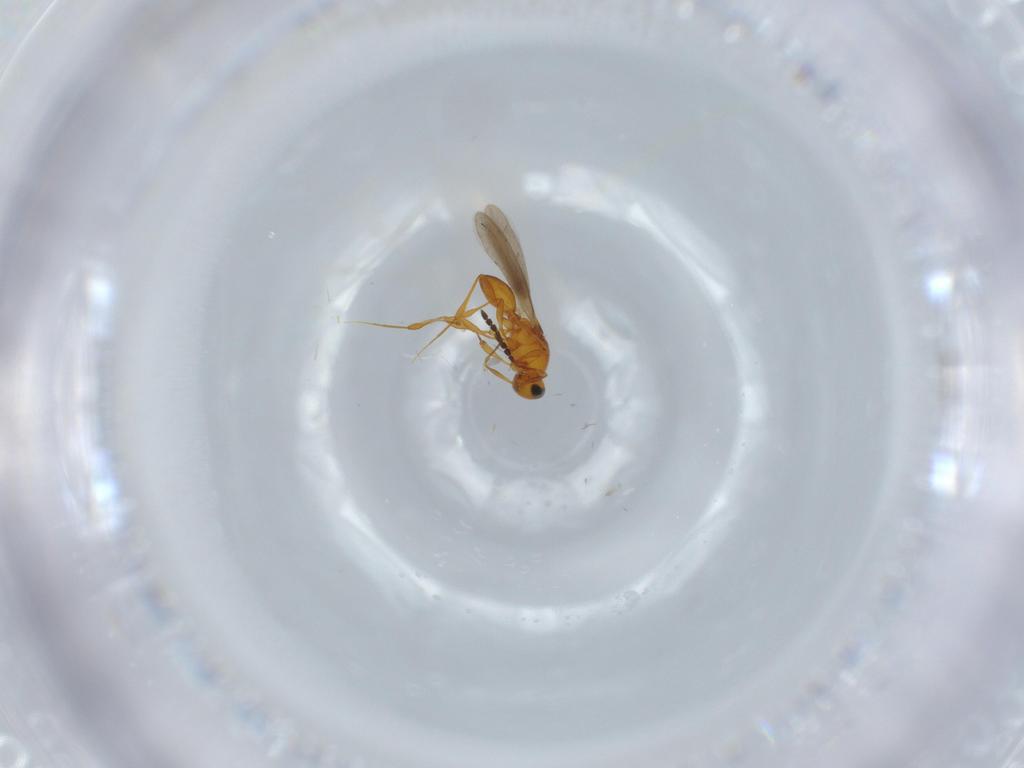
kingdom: Animalia
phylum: Arthropoda
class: Insecta
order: Hymenoptera
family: Platygastridae
